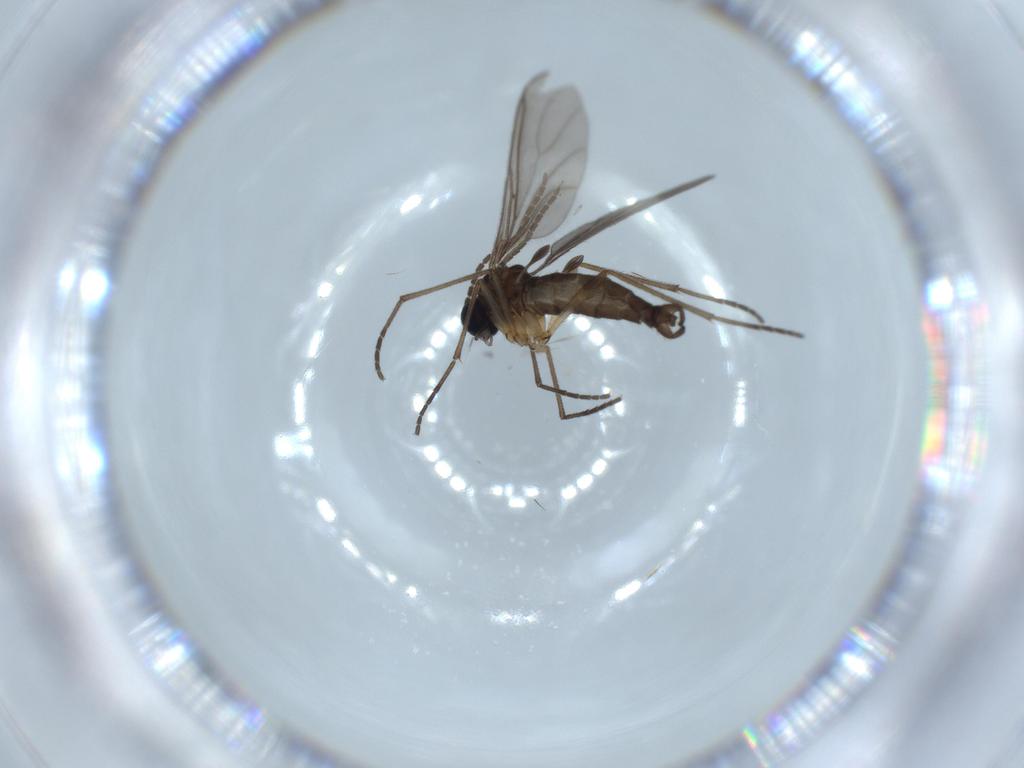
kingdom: Animalia
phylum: Arthropoda
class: Insecta
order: Diptera
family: Sciaridae
